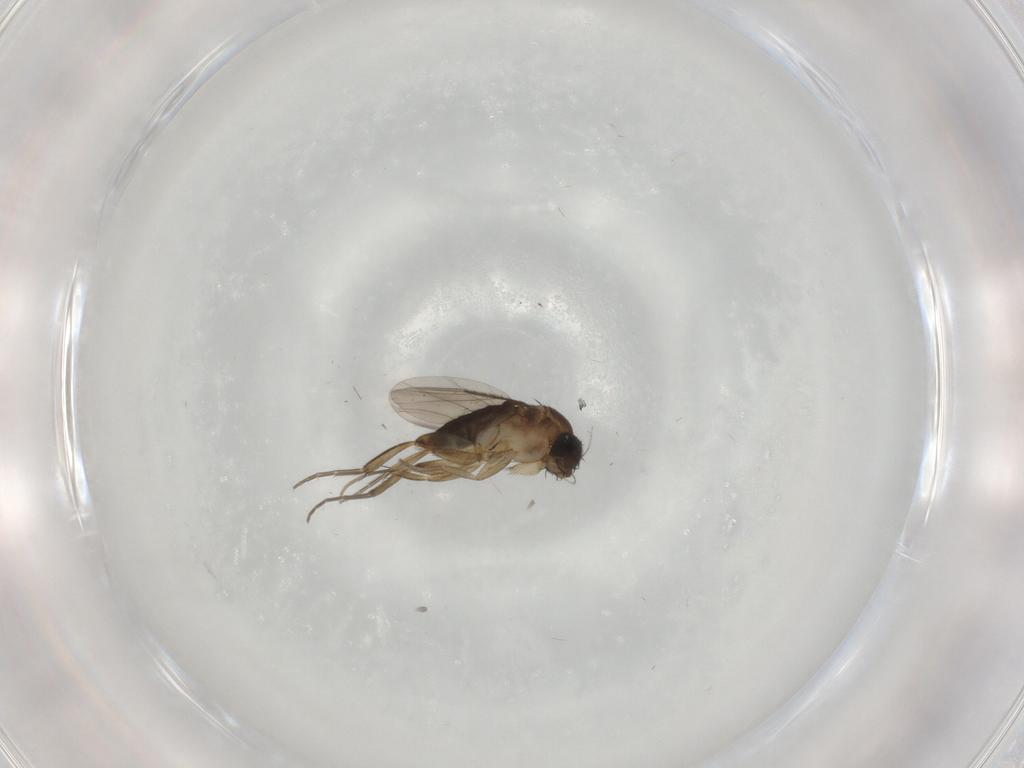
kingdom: Animalia
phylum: Arthropoda
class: Insecta
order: Diptera
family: Phoridae
